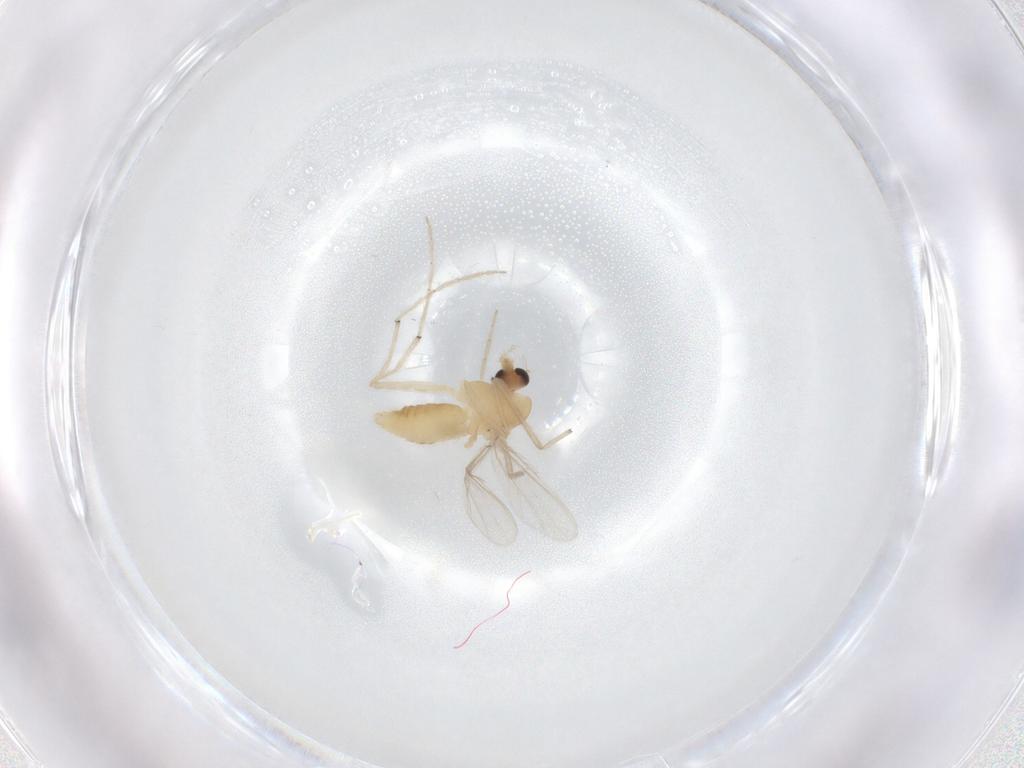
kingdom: Animalia
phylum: Arthropoda
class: Insecta
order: Diptera
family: Chironomidae
